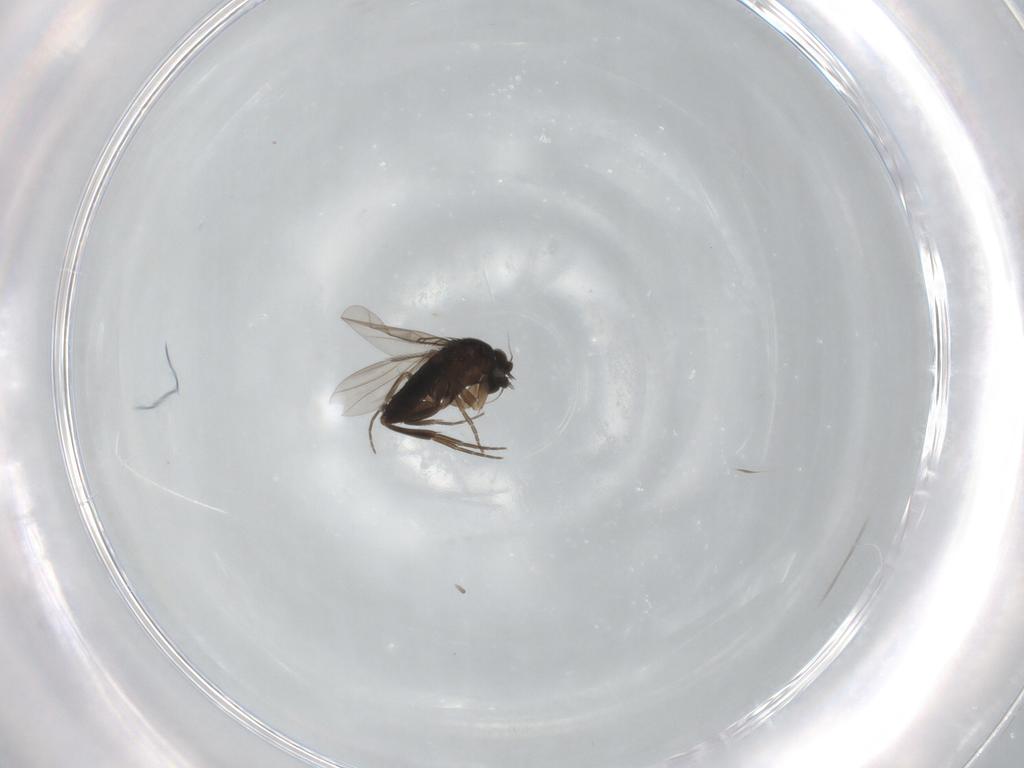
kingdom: Animalia
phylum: Arthropoda
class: Insecta
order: Diptera
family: Phoridae
